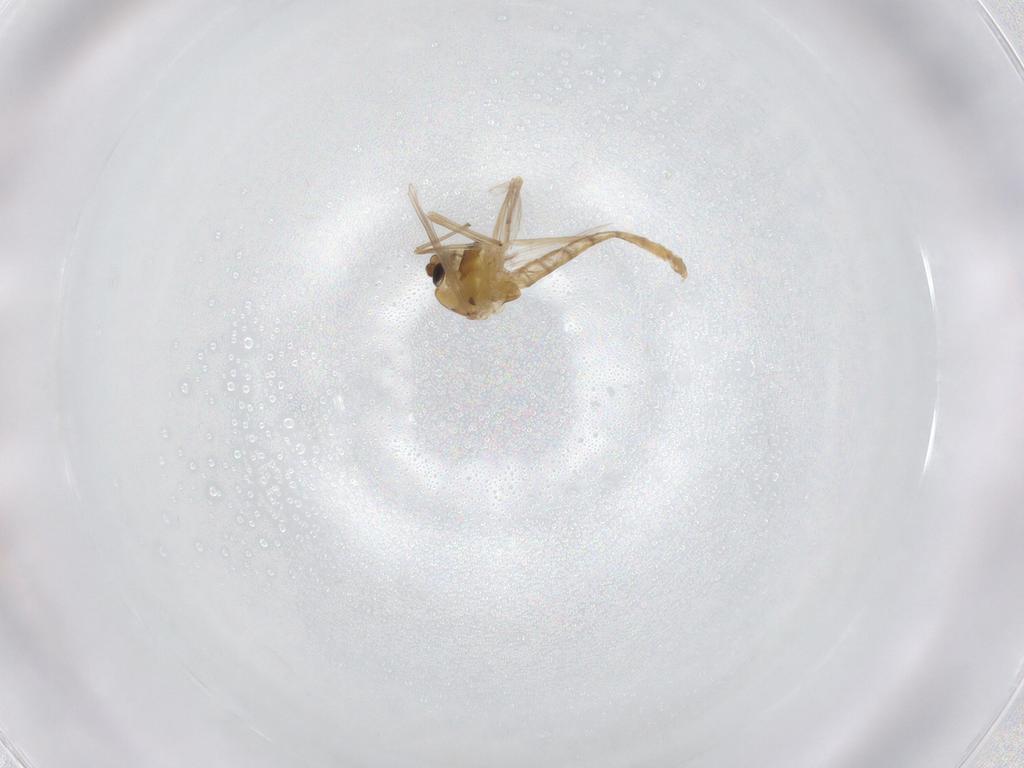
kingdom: Animalia
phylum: Arthropoda
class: Insecta
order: Diptera
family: Chironomidae
